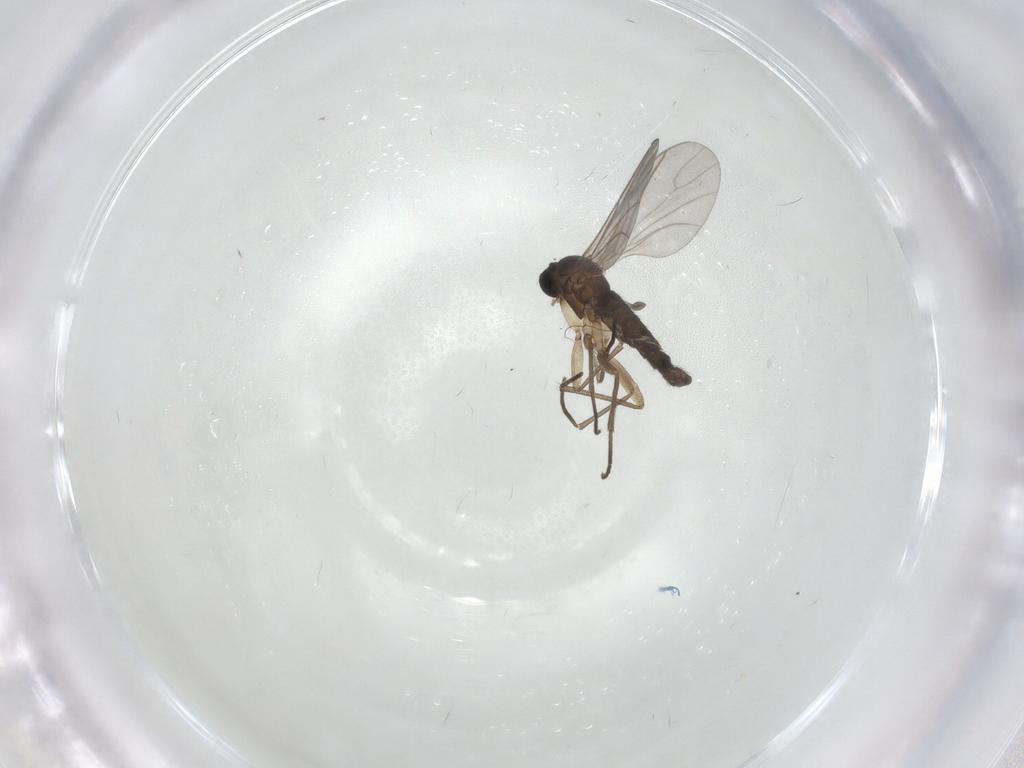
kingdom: Animalia
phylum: Arthropoda
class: Insecta
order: Diptera
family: Sciaridae
